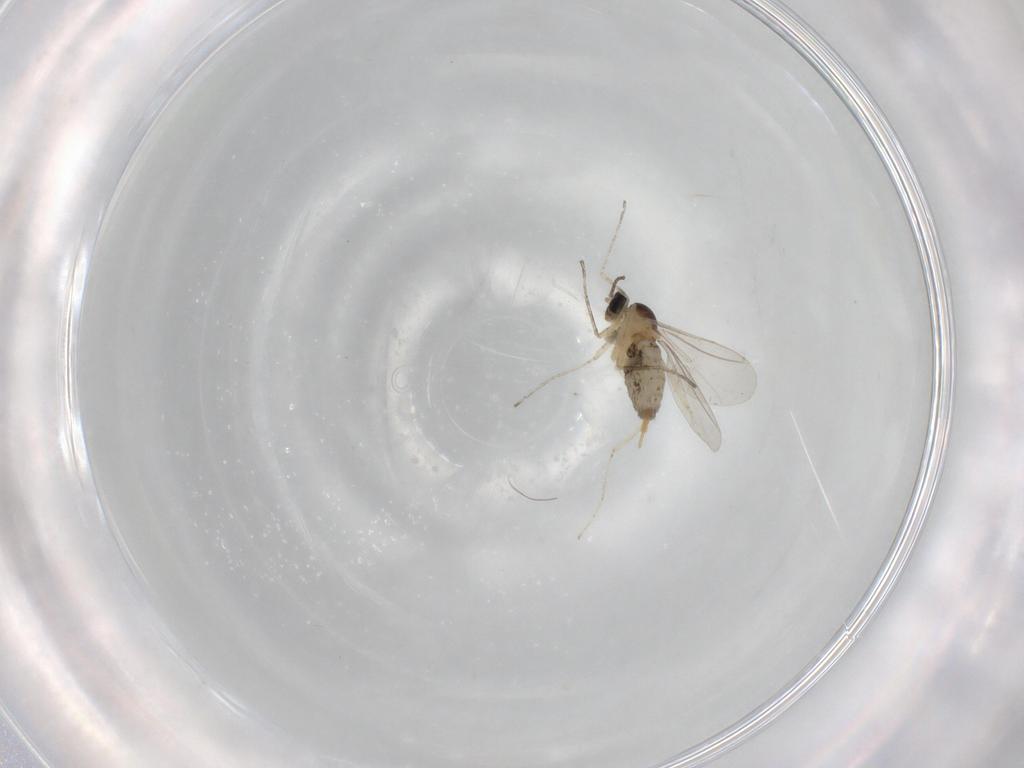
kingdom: Animalia
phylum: Arthropoda
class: Insecta
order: Diptera
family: Cecidomyiidae
